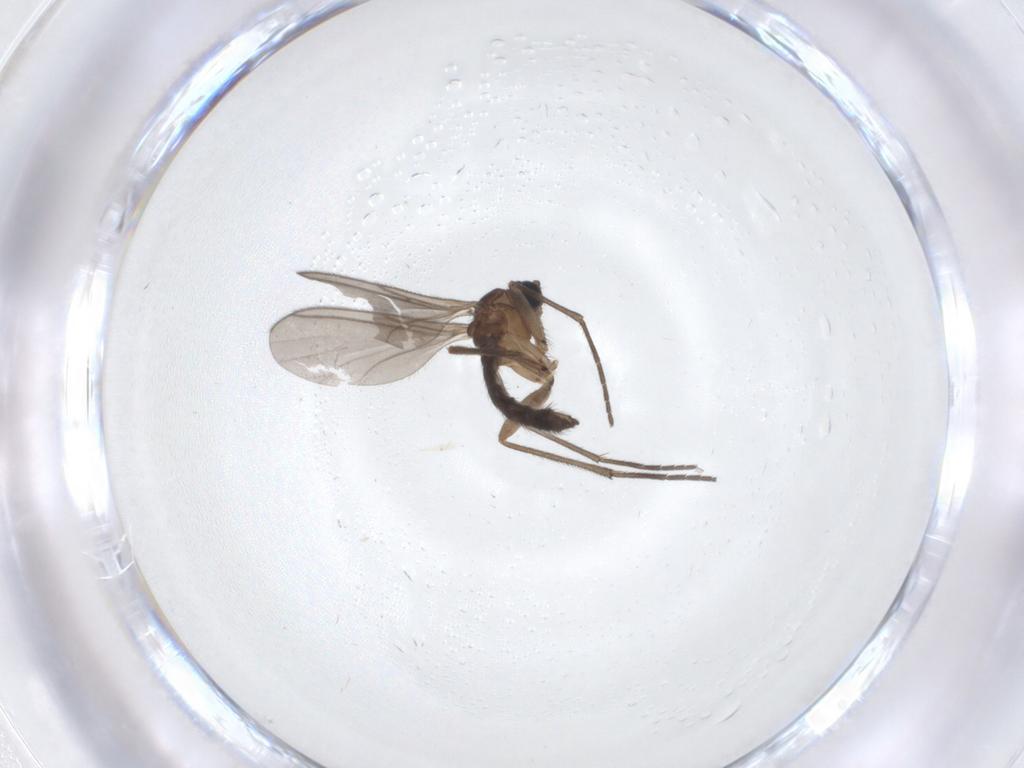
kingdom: Animalia
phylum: Arthropoda
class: Insecta
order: Diptera
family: Sciaridae
